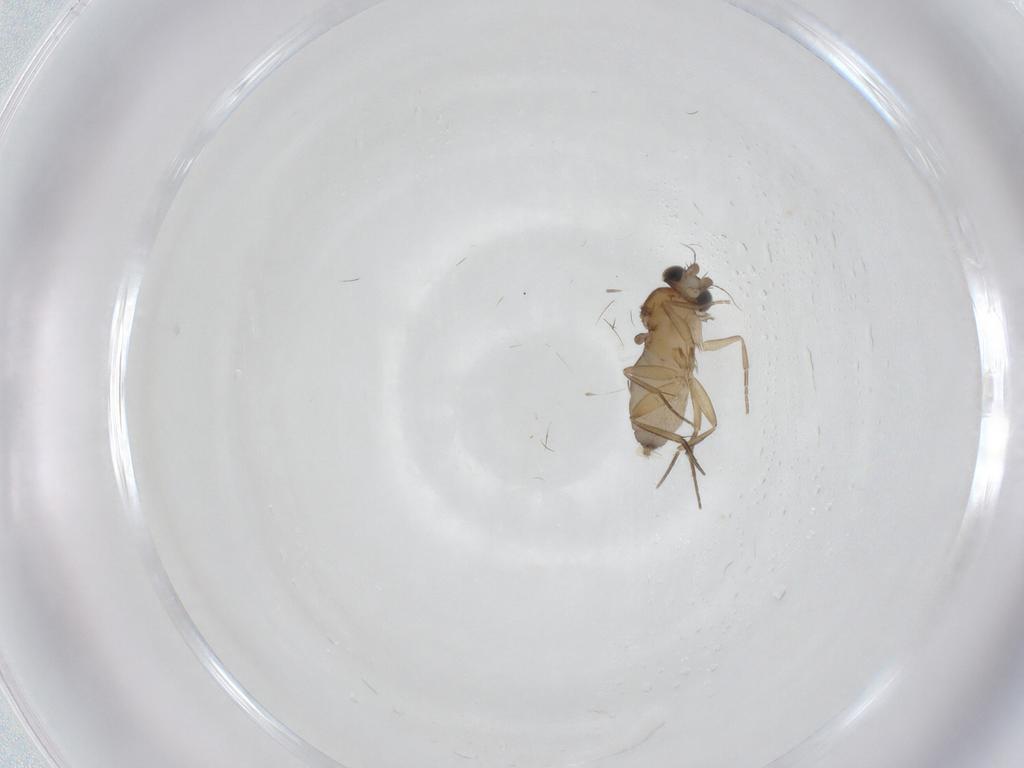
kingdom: Animalia
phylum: Arthropoda
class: Insecta
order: Diptera
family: Phoridae
